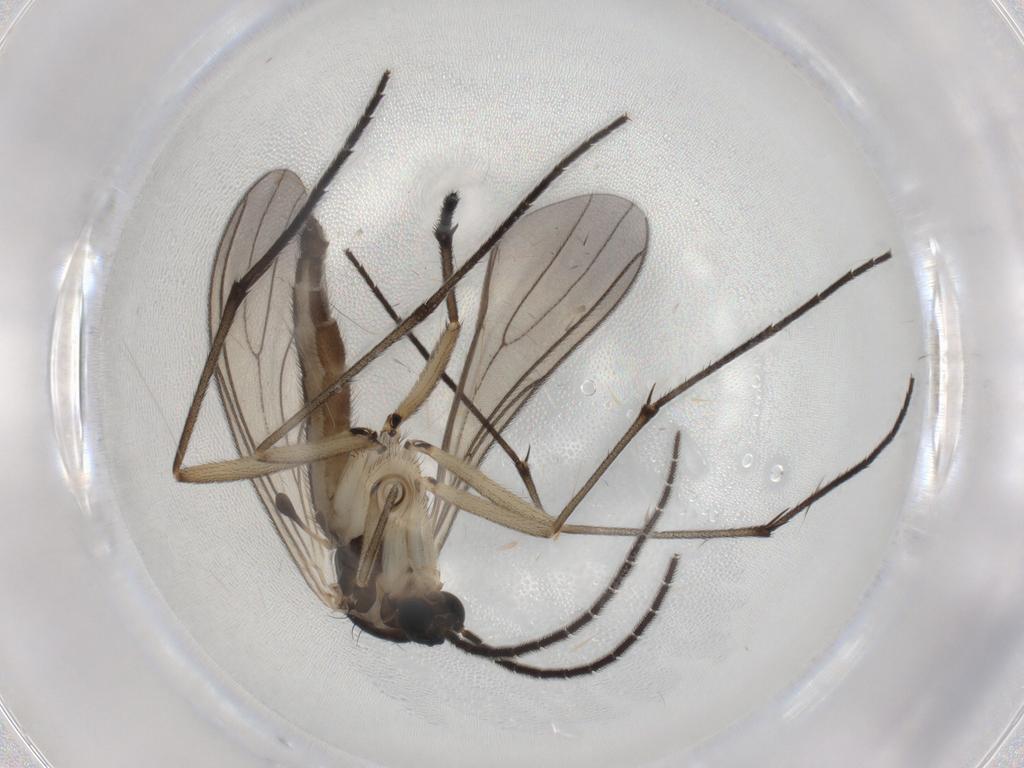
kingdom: Animalia
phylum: Arthropoda
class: Insecta
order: Diptera
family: Sciaridae
